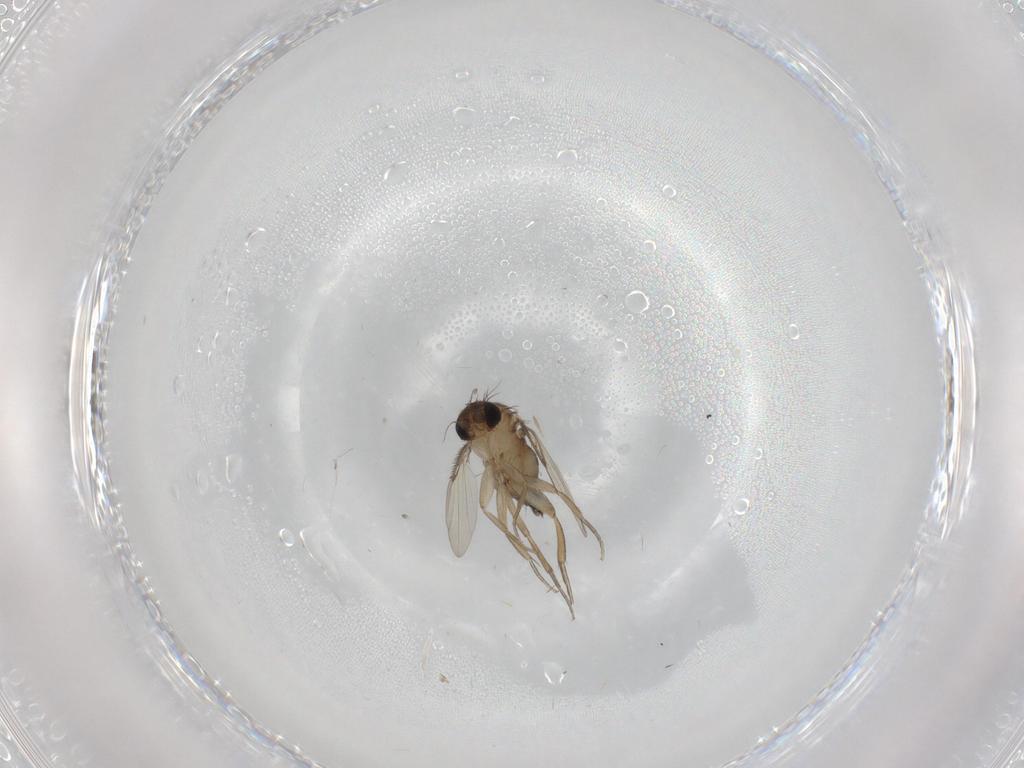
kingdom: Animalia
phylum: Arthropoda
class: Insecta
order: Diptera
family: Phoridae
